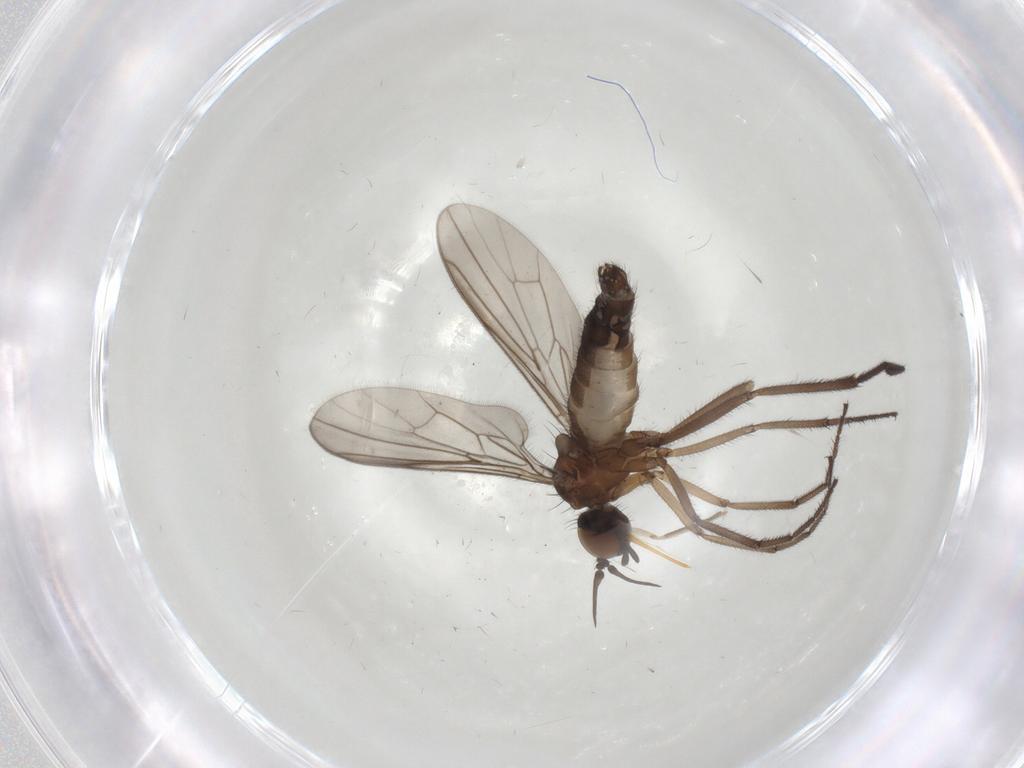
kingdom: Animalia
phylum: Arthropoda
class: Insecta
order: Diptera
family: Empididae
